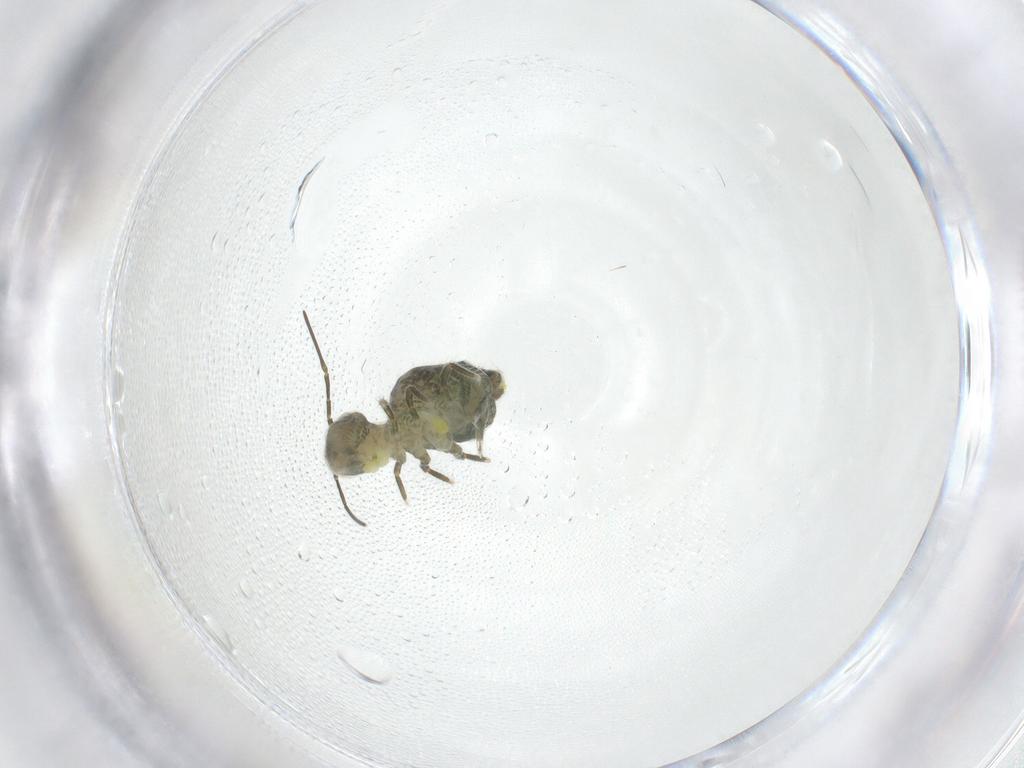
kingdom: Animalia
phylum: Arthropoda
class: Collembola
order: Symphypleona
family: Sminthuridae
